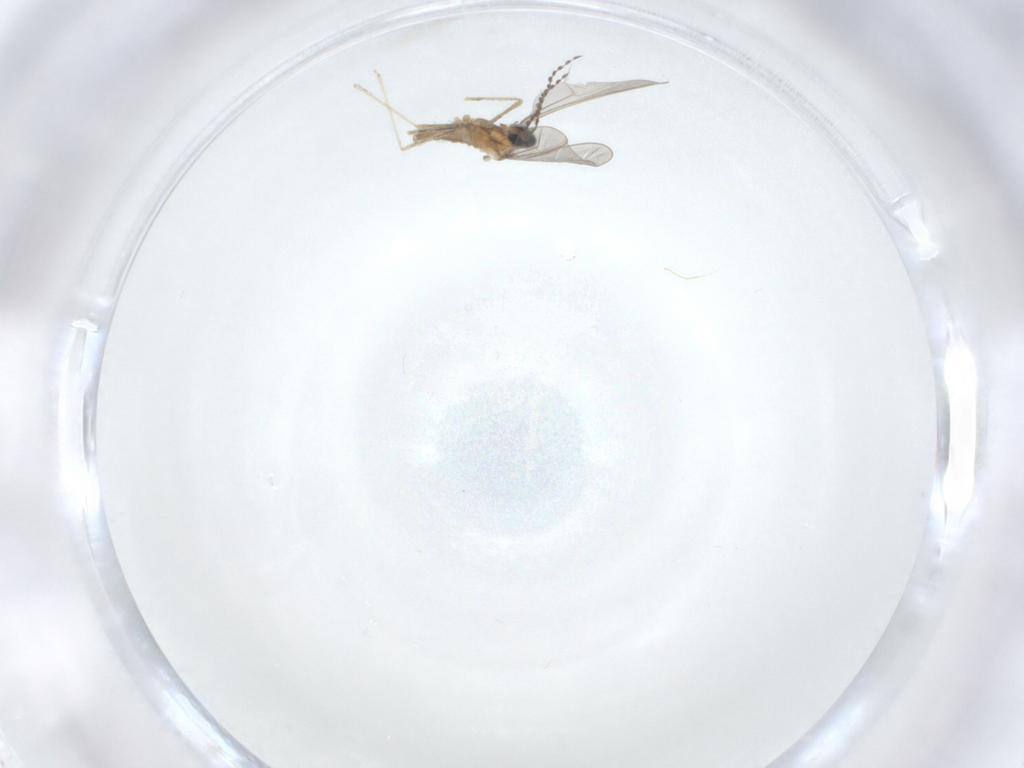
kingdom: Animalia
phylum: Arthropoda
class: Insecta
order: Diptera
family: Cecidomyiidae
